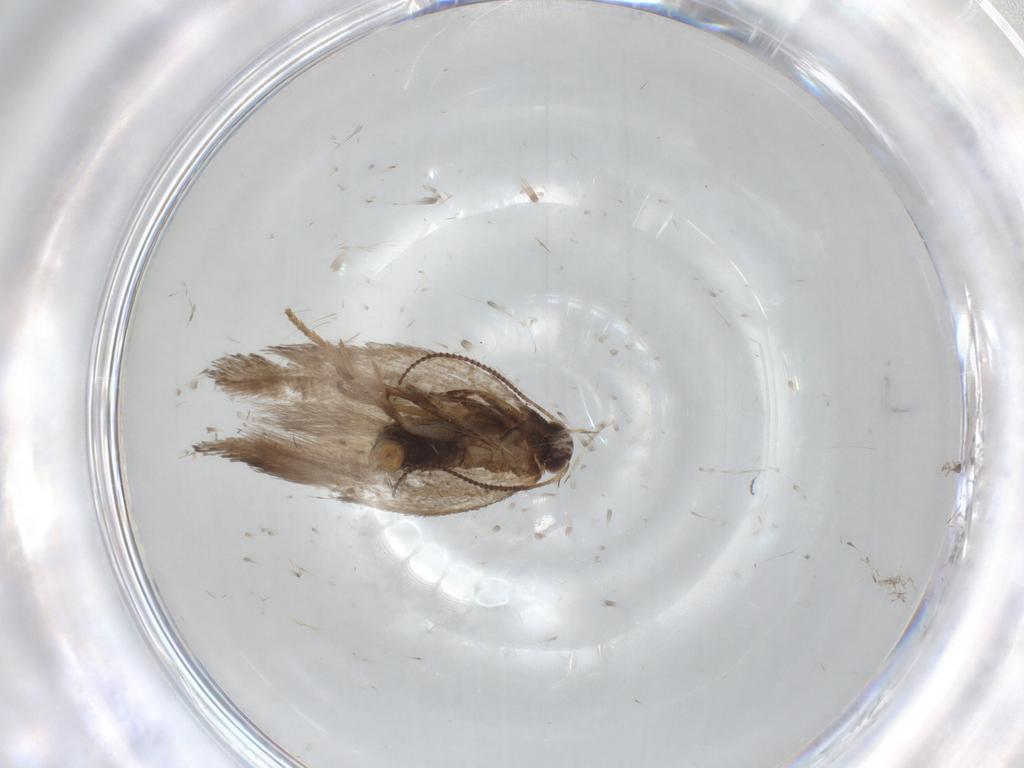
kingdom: Animalia
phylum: Arthropoda
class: Insecta
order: Lepidoptera
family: Nepticulidae
